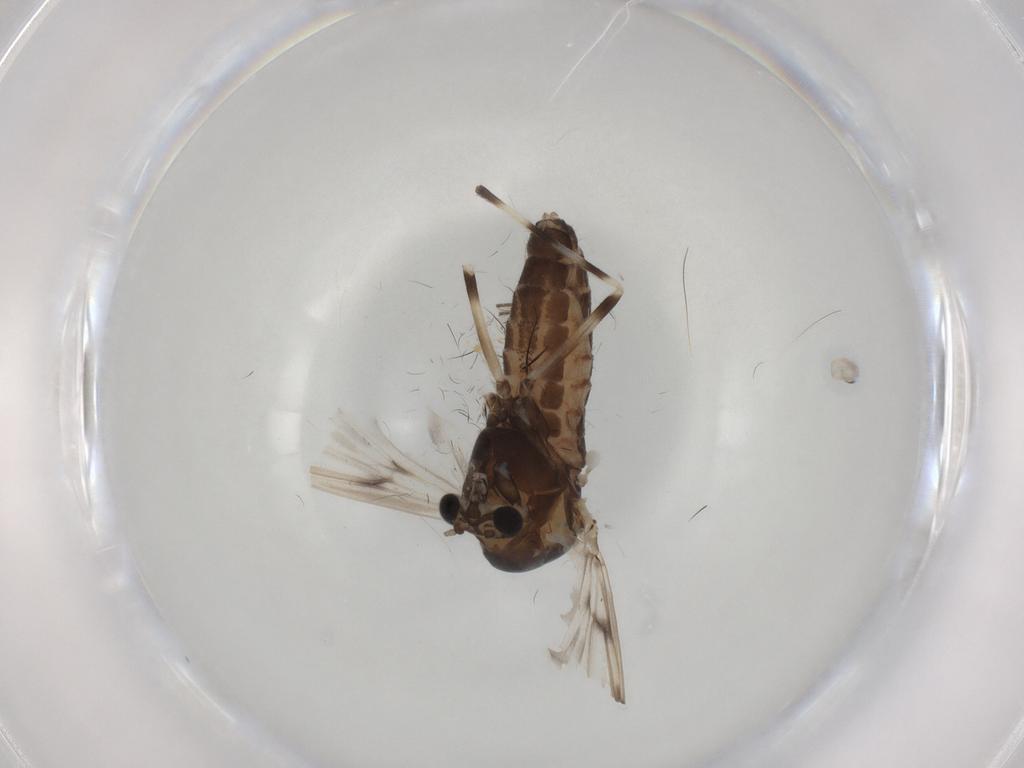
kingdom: Animalia
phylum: Arthropoda
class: Insecta
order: Diptera
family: Chironomidae
